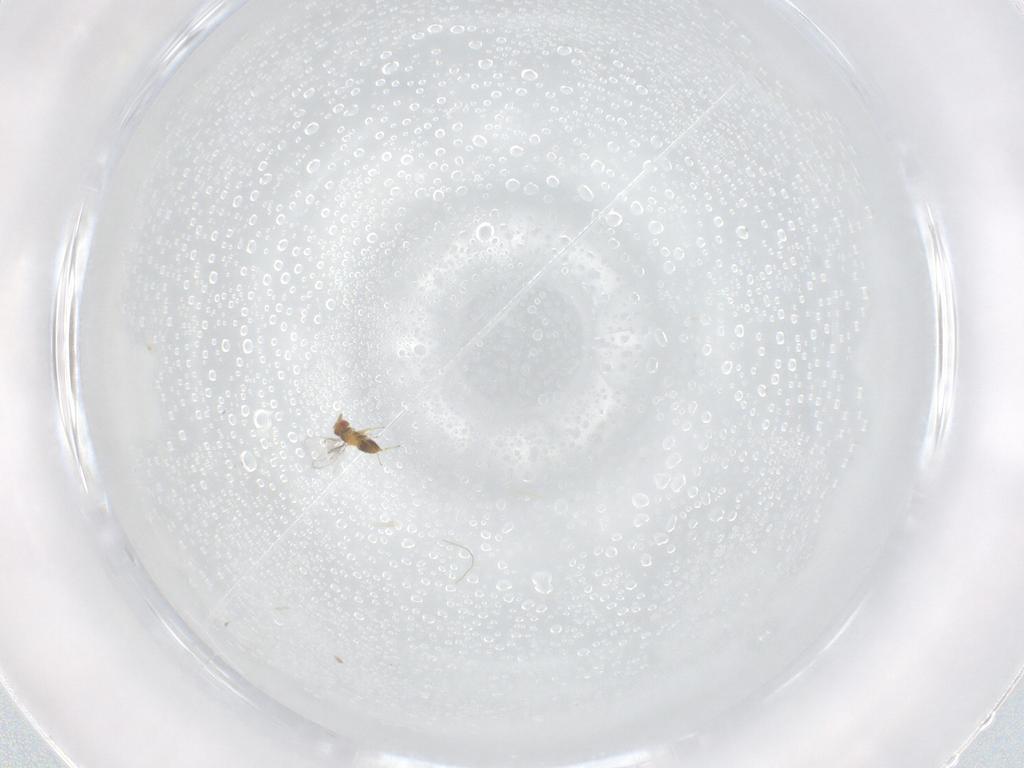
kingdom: Animalia
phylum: Arthropoda
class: Insecta
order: Hymenoptera
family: Trichogrammatidae
